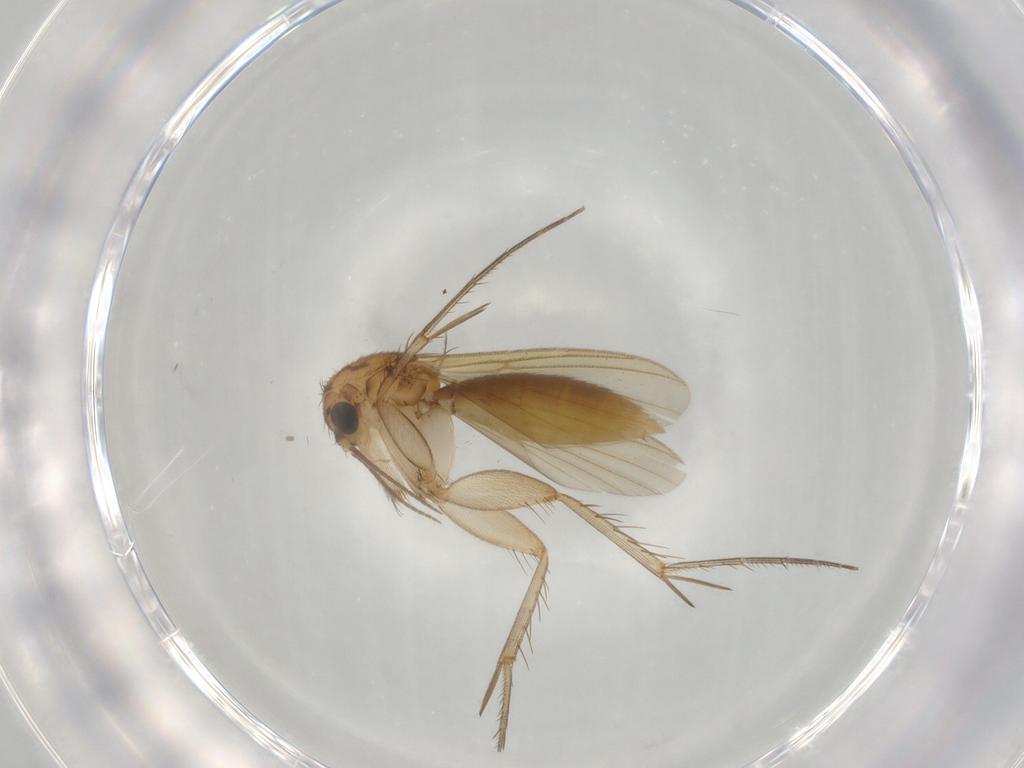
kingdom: Animalia
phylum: Arthropoda
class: Insecta
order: Diptera
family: Mycetophilidae
